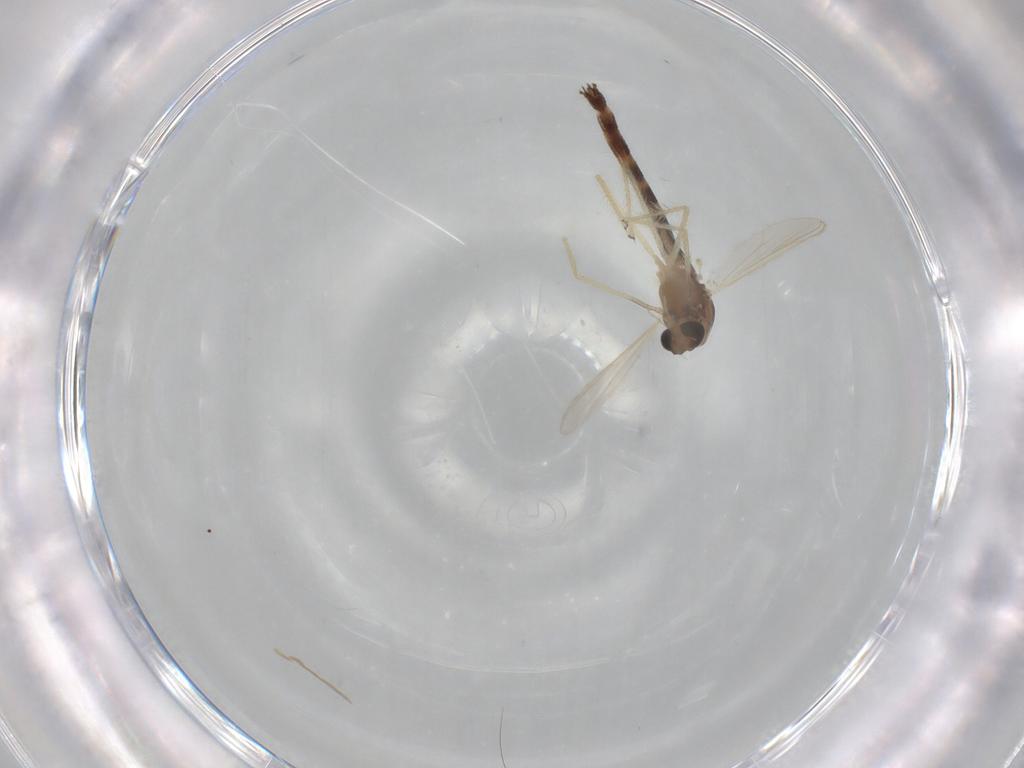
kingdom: Animalia
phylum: Arthropoda
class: Insecta
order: Diptera
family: Chironomidae
